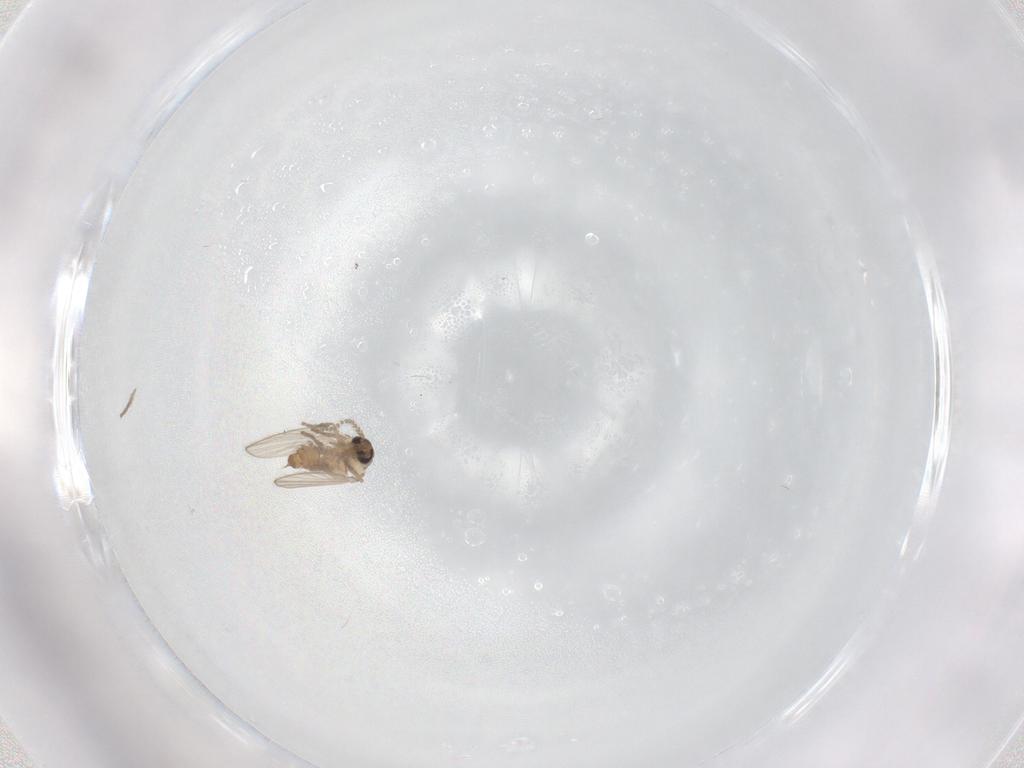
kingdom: Animalia
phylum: Arthropoda
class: Insecta
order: Diptera
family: Psychodidae
